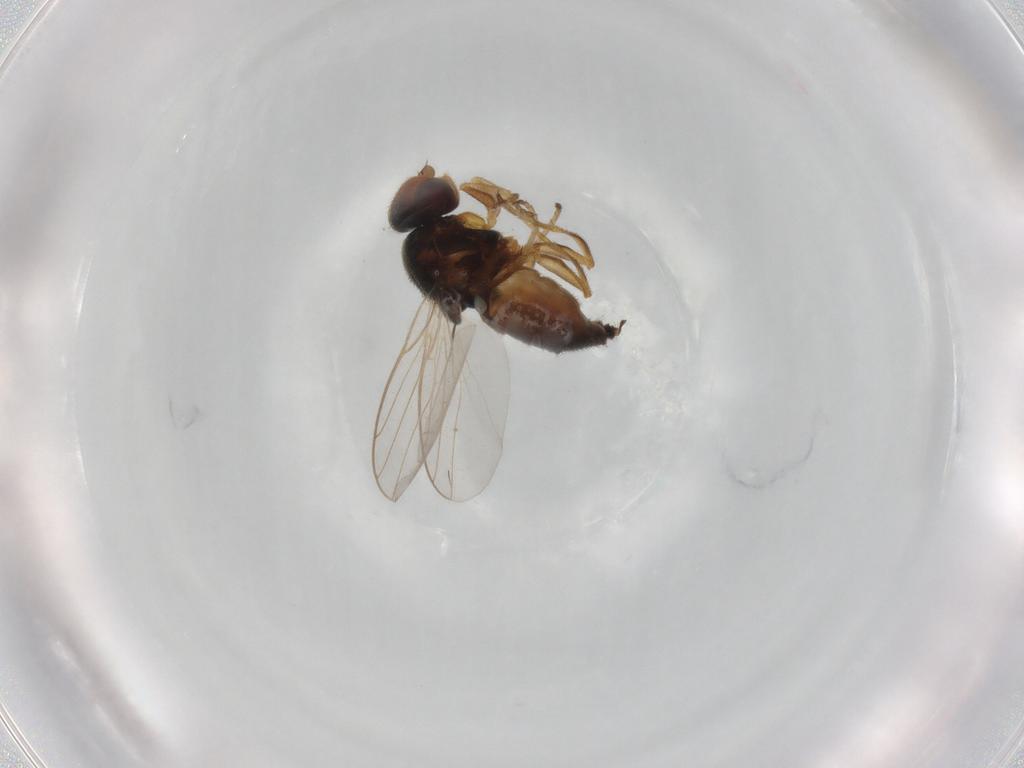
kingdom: Animalia
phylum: Arthropoda
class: Insecta
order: Diptera
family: Chloropidae
